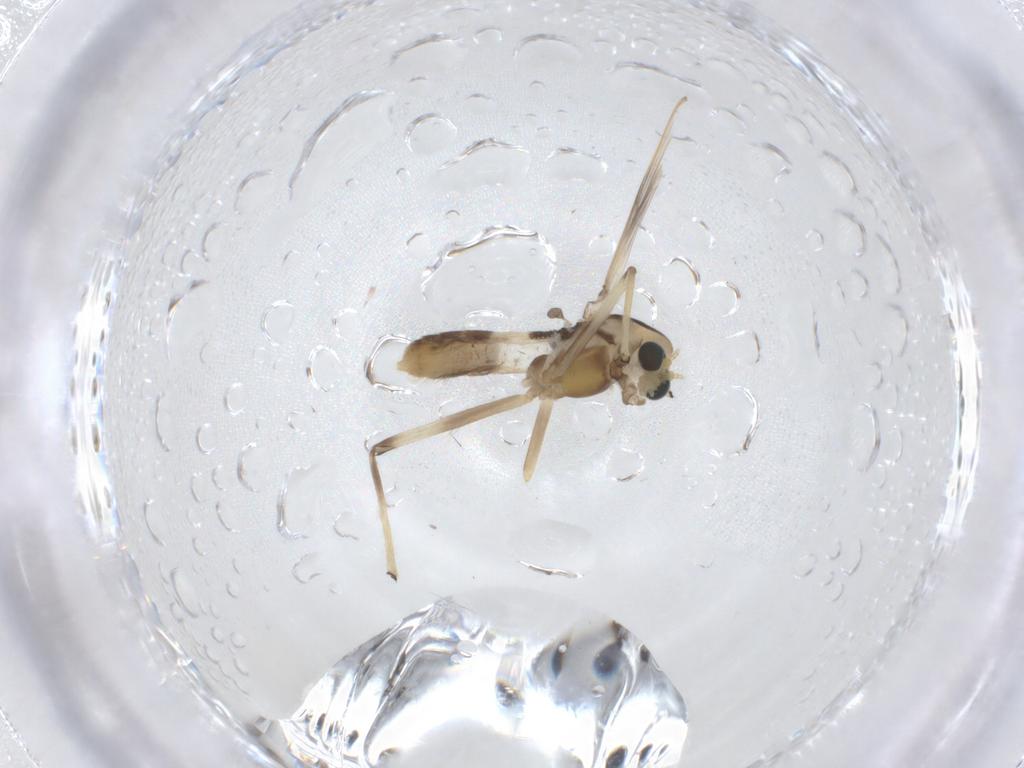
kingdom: Animalia
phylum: Arthropoda
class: Insecta
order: Diptera
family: Chironomidae
